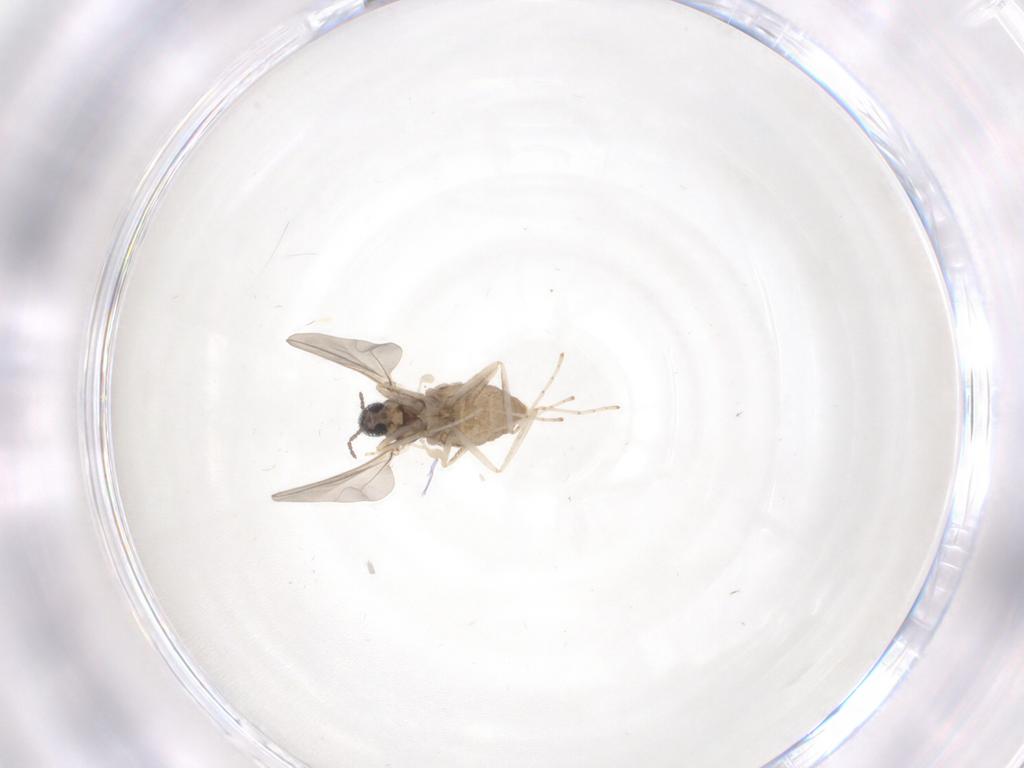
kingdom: Animalia
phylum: Arthropoda
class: Insecta
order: Diptera
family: Cecidomyiidae
